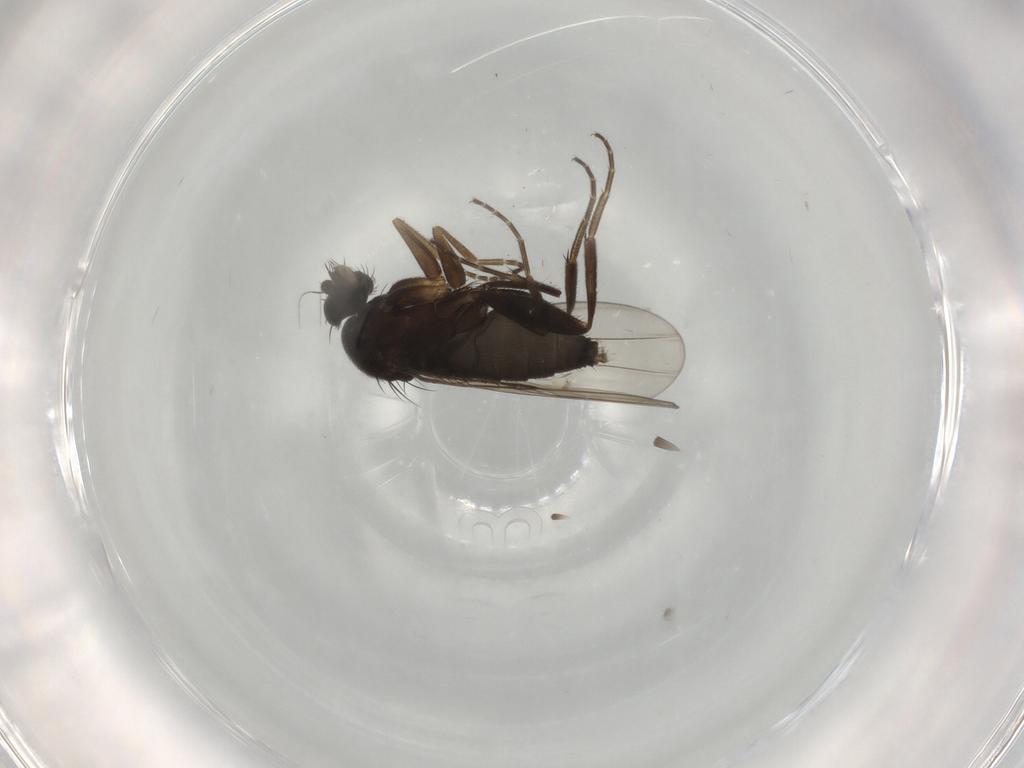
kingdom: Animalia
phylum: Arthropoda
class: Insecta
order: Diptera
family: Phoridae
